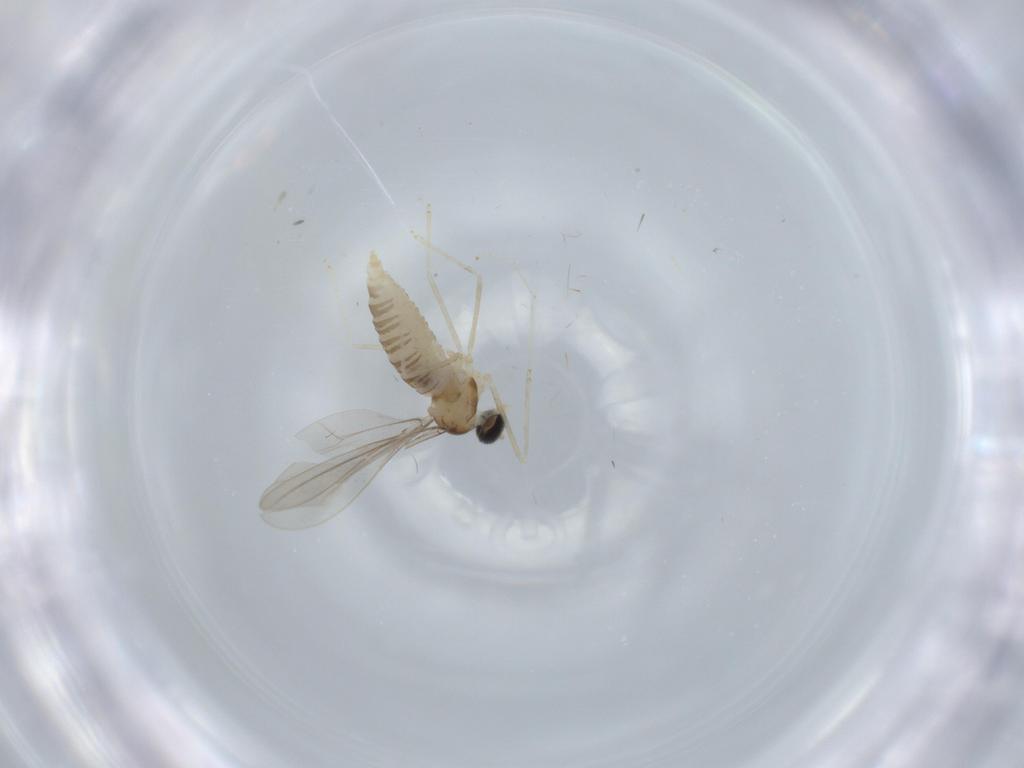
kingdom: Animalia
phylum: Arthropoda
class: Insecta
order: Diptera
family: Cecidomyiidae
